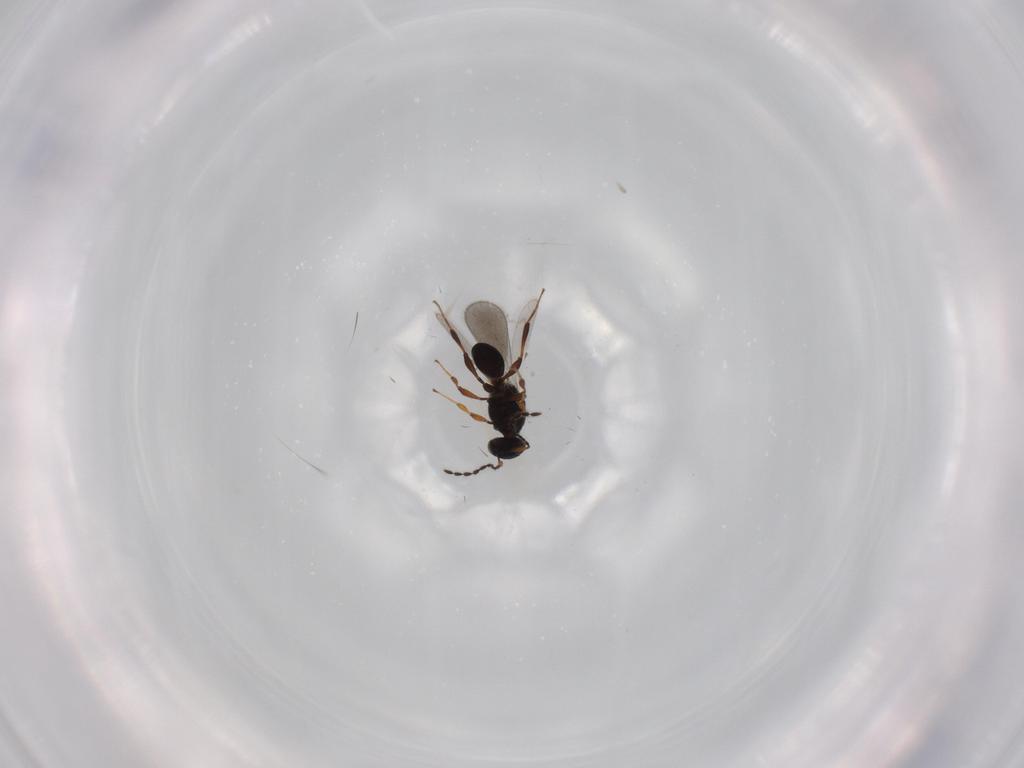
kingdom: Animalia
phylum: Arthropoda
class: Insecta
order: Hymenoptera
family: Platygastridae
